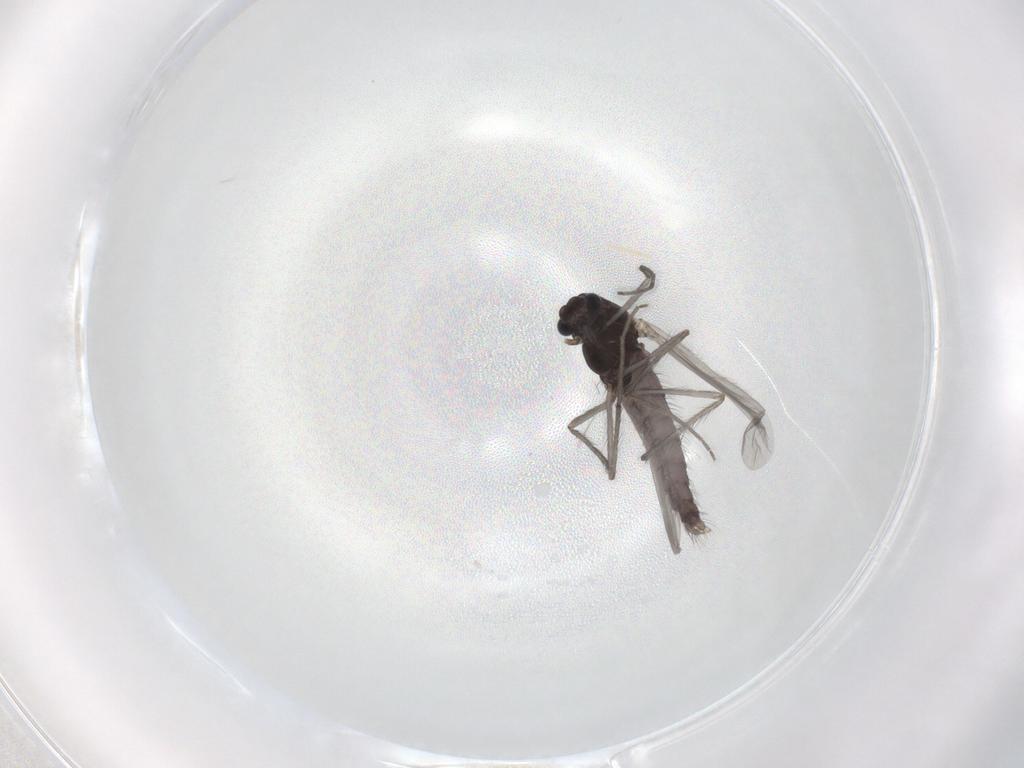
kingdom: Animalia
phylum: Arthropoda
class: Insecta
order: Diptera
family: Chironomidae
